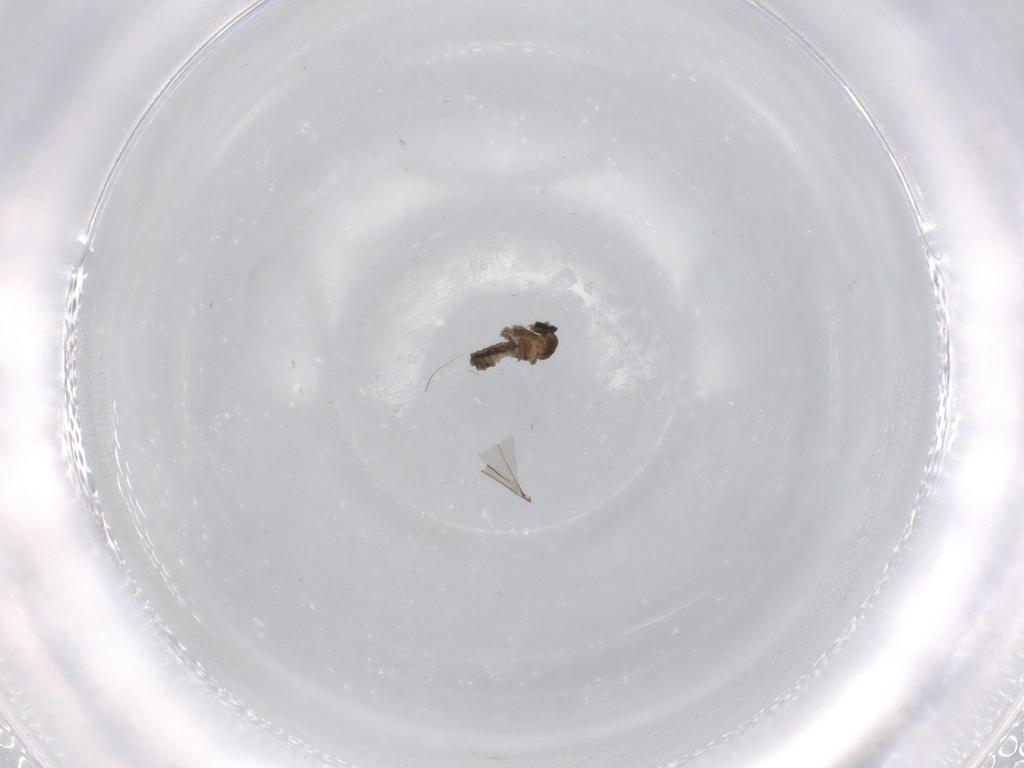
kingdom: Animalia
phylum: Arthropoda
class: Insecta
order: Diptera
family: Cecidomyiidae
